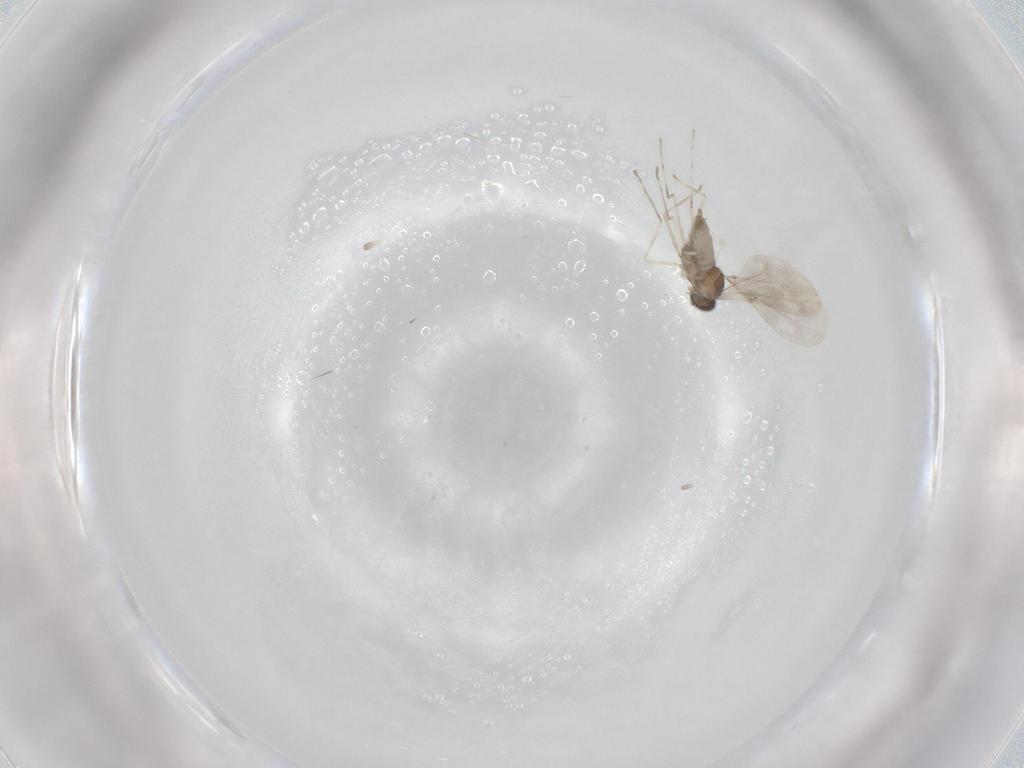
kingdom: Animalia
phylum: Arthropoda
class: Insecta
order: Diptera
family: Cecidomyiidae
